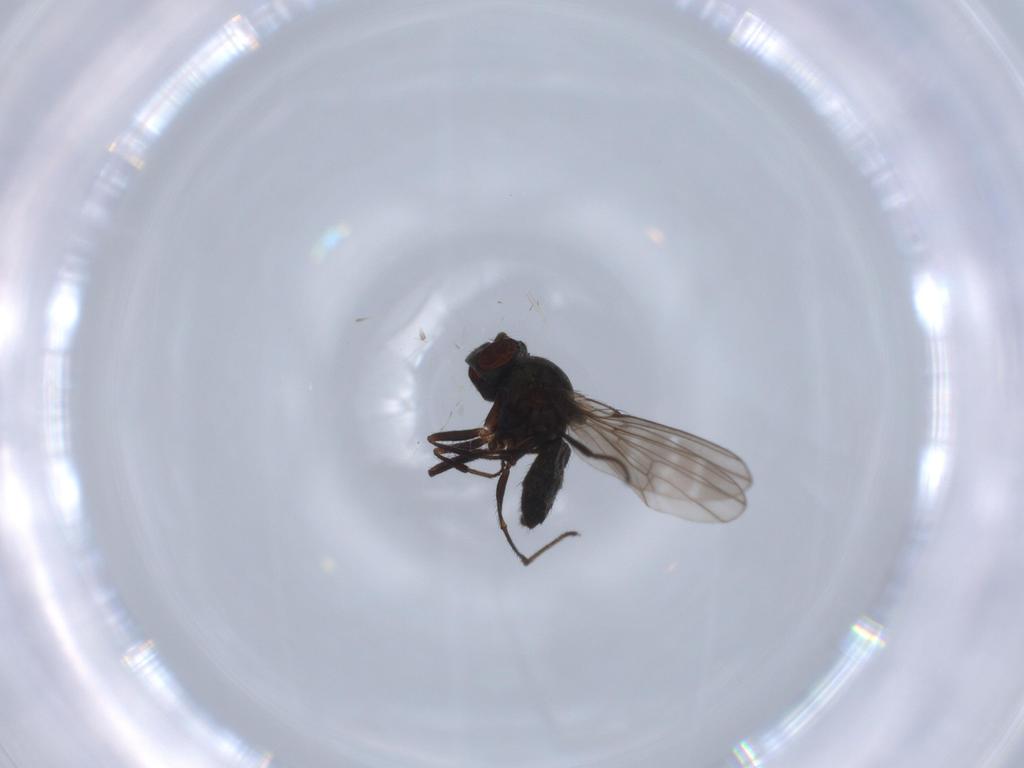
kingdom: Animalia
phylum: Arthropoda
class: Insecta
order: Diptera
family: Ephydridae
